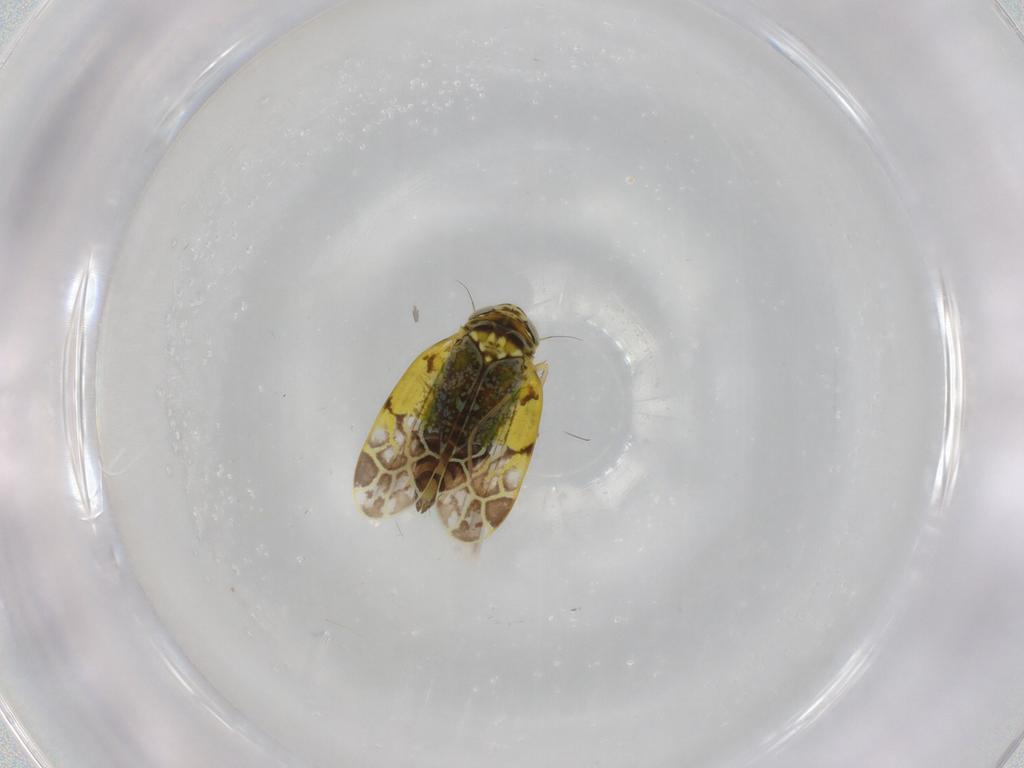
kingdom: Animalia
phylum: Arthropoda
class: Insecta
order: Hemiptera
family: Cicadellidae
